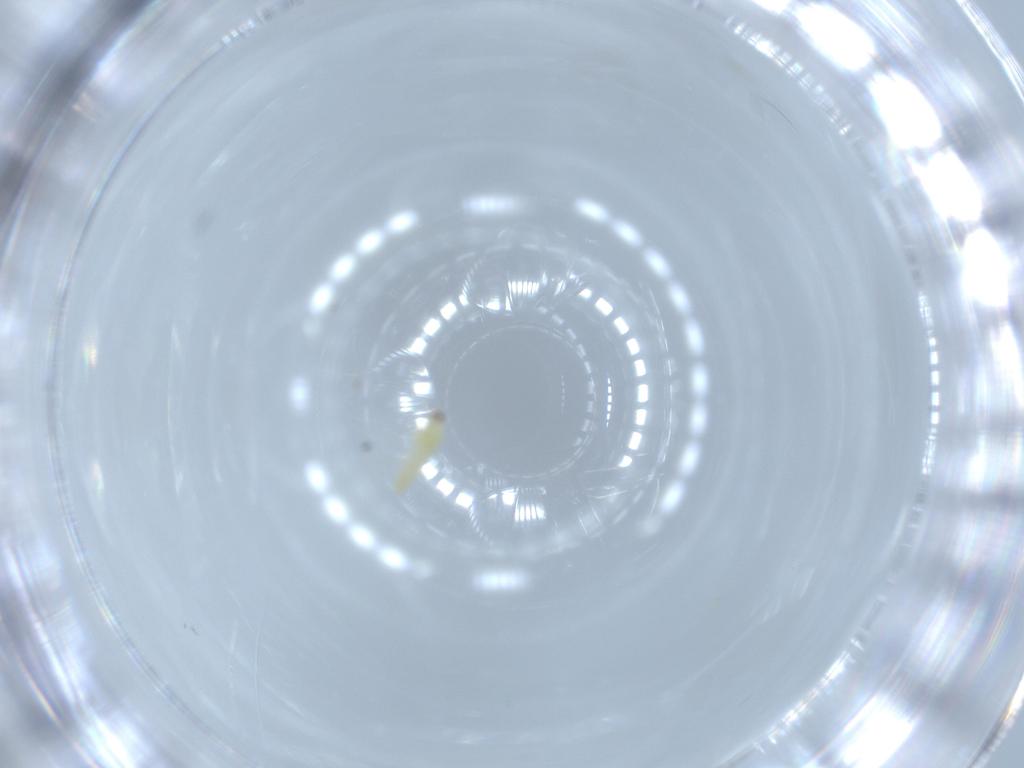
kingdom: Animalia
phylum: Arthropoda
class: Insecta
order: Thysanoptera
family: Thripidae
